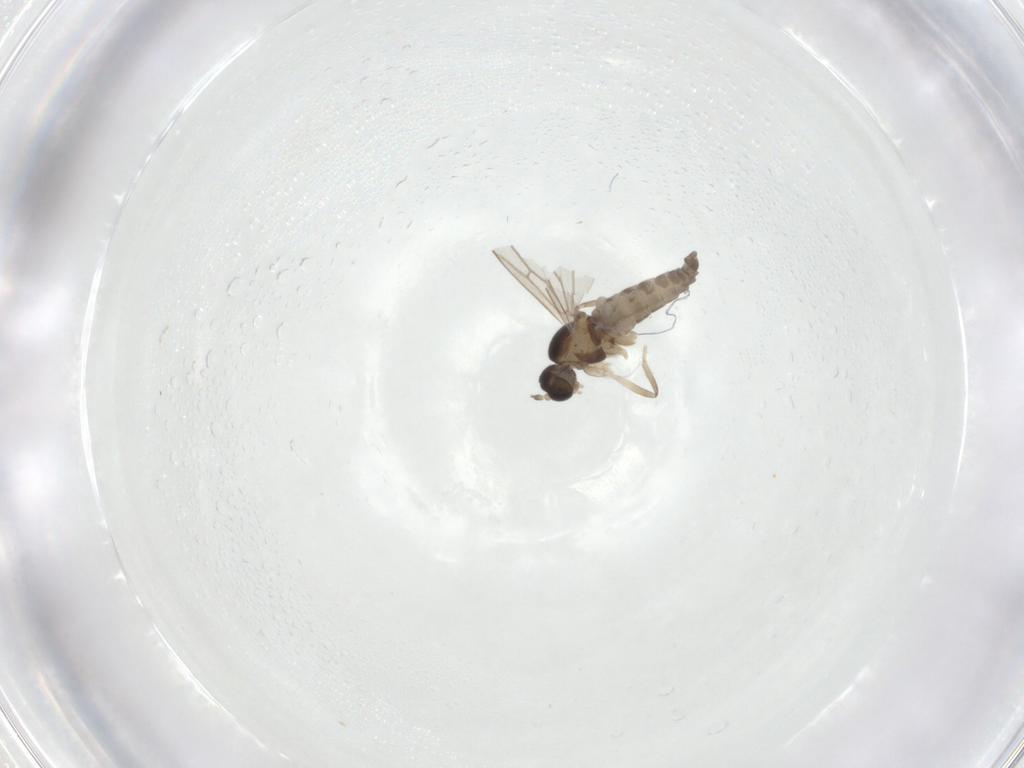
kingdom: Animalia
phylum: Arthropoda
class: Insecta
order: Diptera
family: Cecidomyiidae
